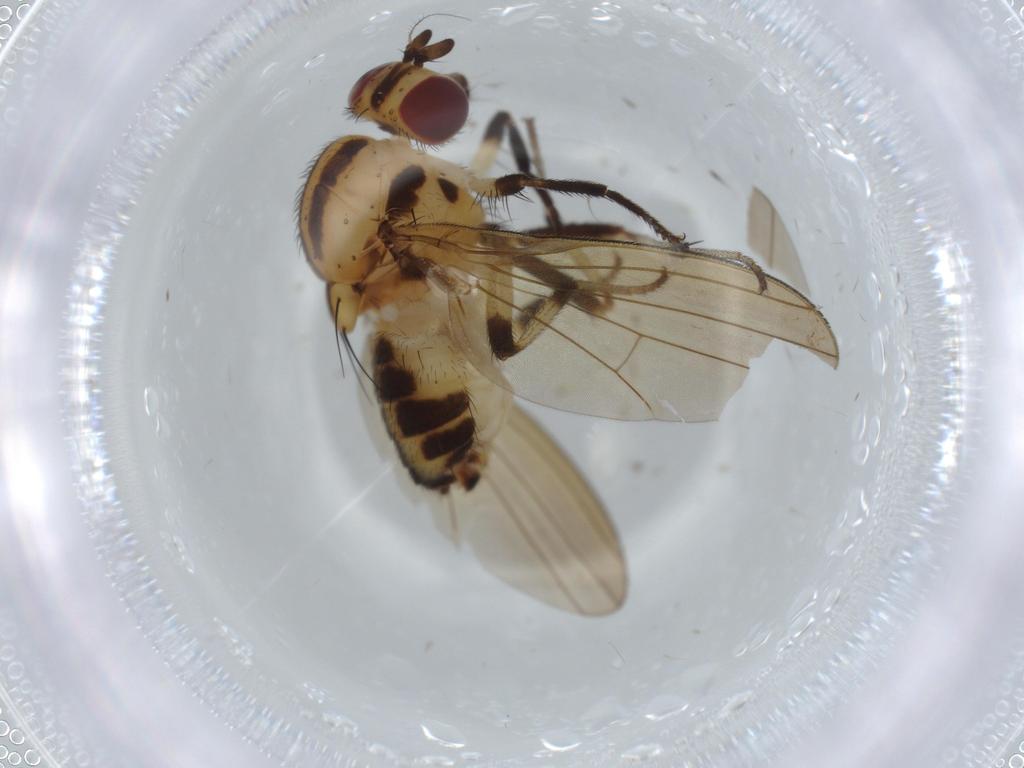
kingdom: Animalia
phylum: Arthropoda
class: Insecta
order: Diptera
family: Lauxaniidae
